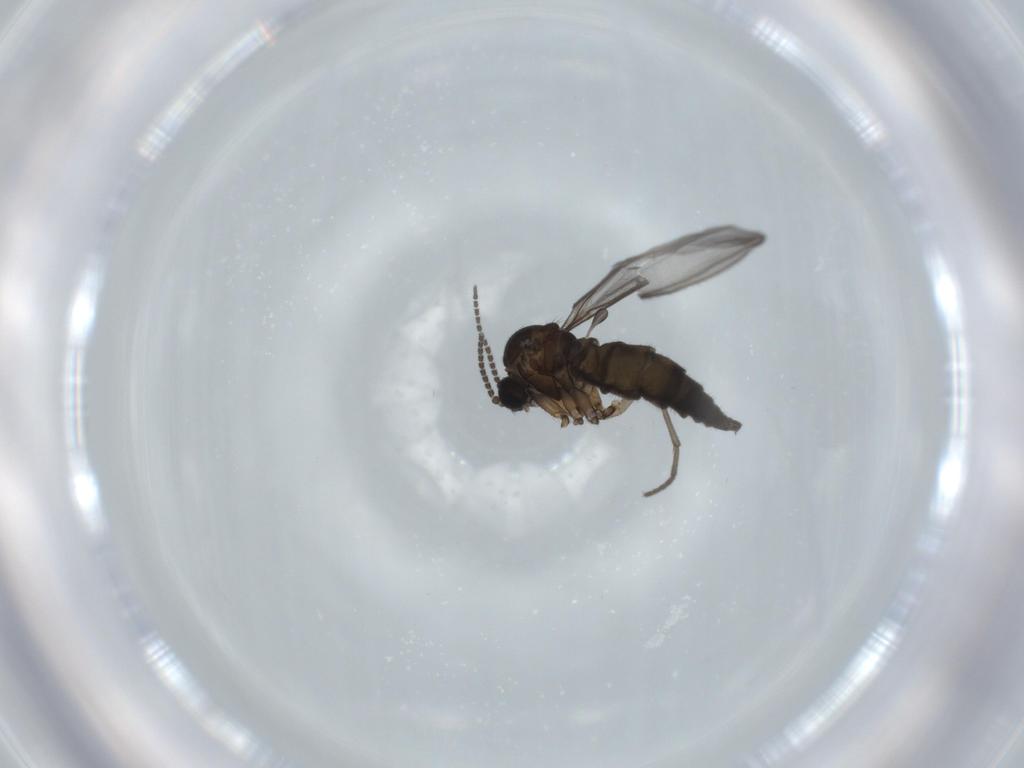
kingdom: Animalia
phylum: Arthropoda
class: Insecta
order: Diptera
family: Sciaridae
